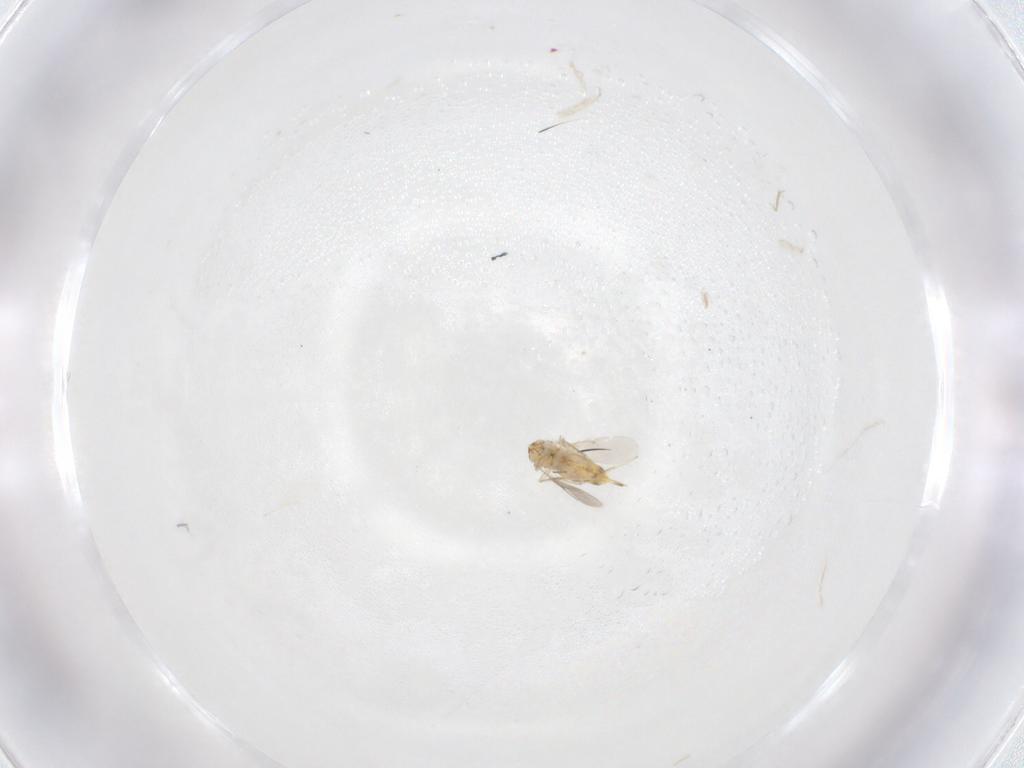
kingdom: Animalia
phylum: Arthropoda
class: Insecta
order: Hymenoptera
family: Aphelinidae
